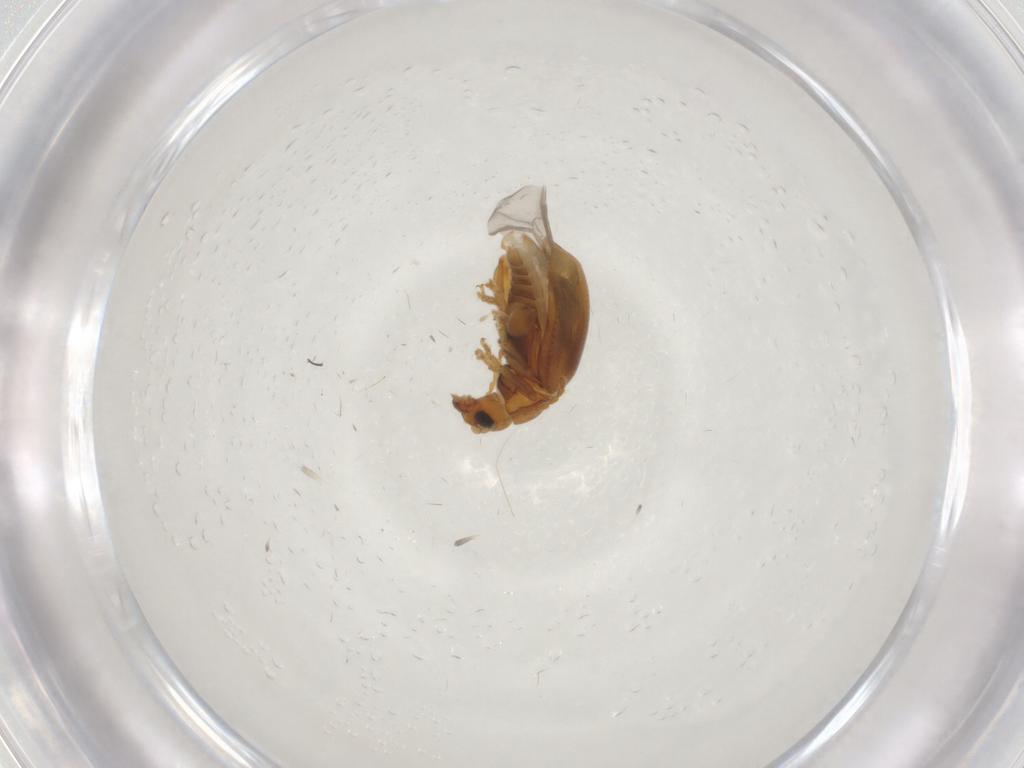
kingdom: Animalia
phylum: Arthropoda
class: Insecta
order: Coleoptera
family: Chrysomelidae
